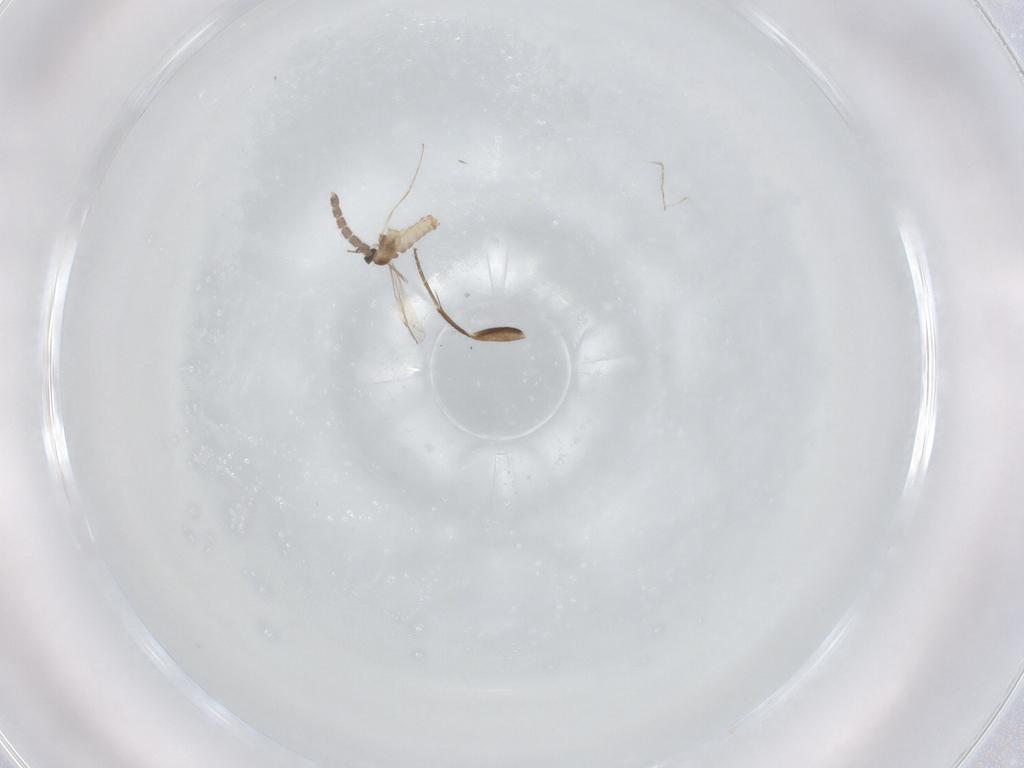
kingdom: Animalia
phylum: Arthropoda
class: Insecta
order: Diptera
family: Cecidomyiidae
